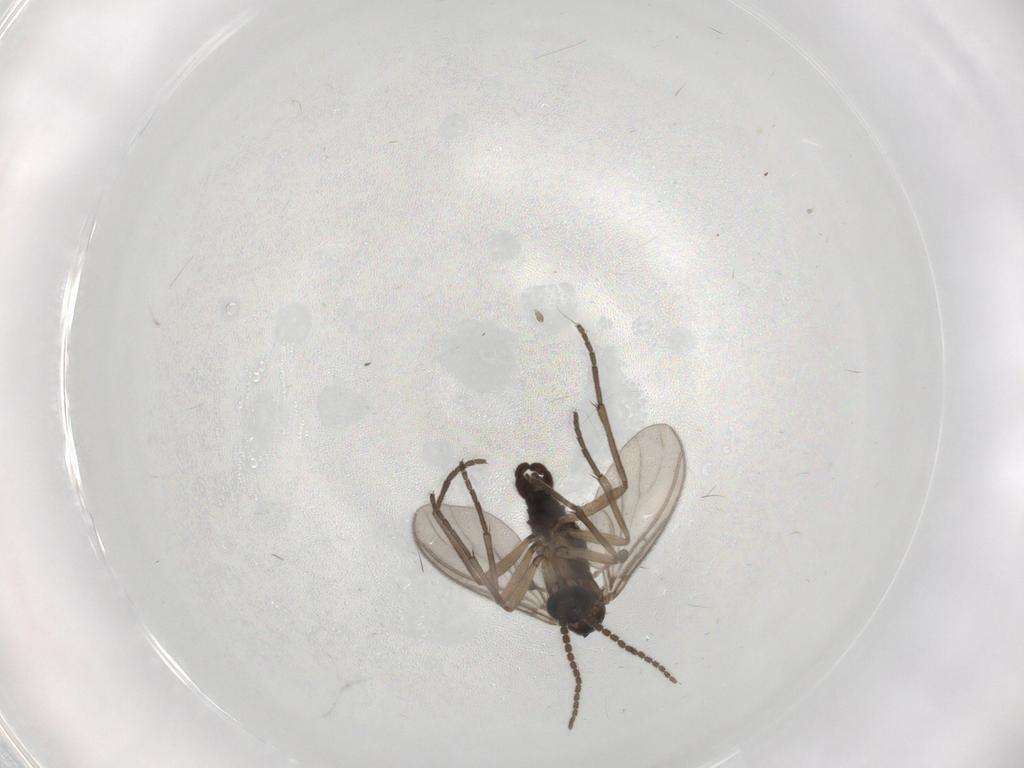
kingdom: Animalia
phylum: Arthropoda
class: Insecta
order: Diptera
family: Sciaridae
